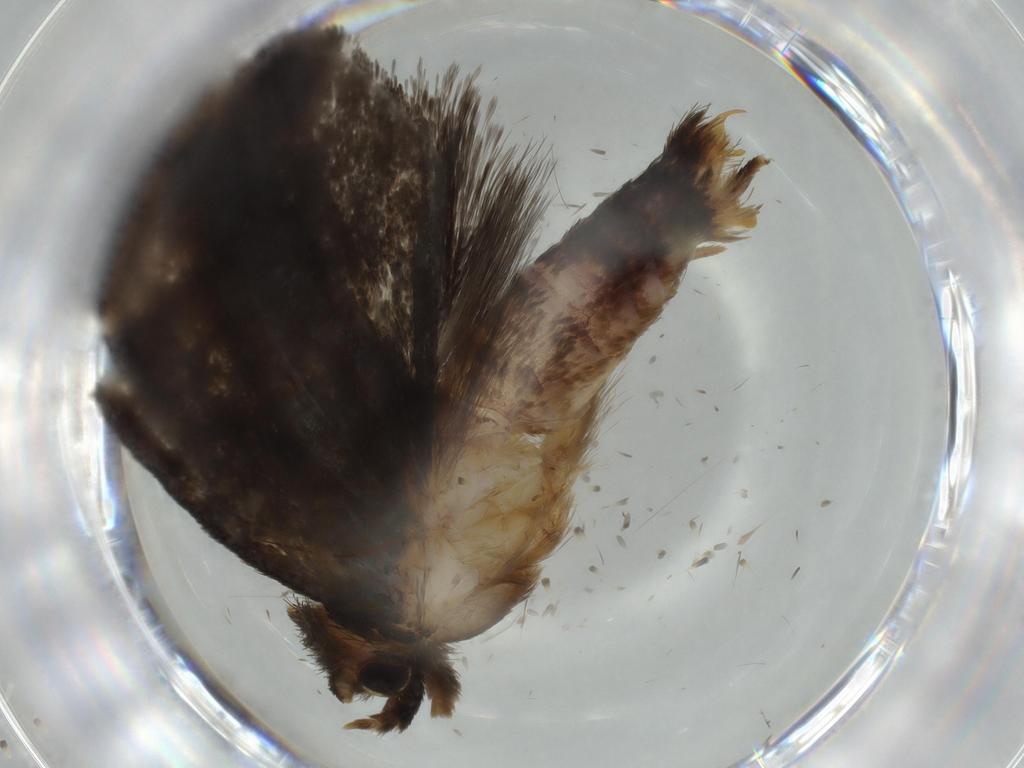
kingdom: Animalia
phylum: Arthropoda
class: Insecta
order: Lepidoptera
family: Tineidae
